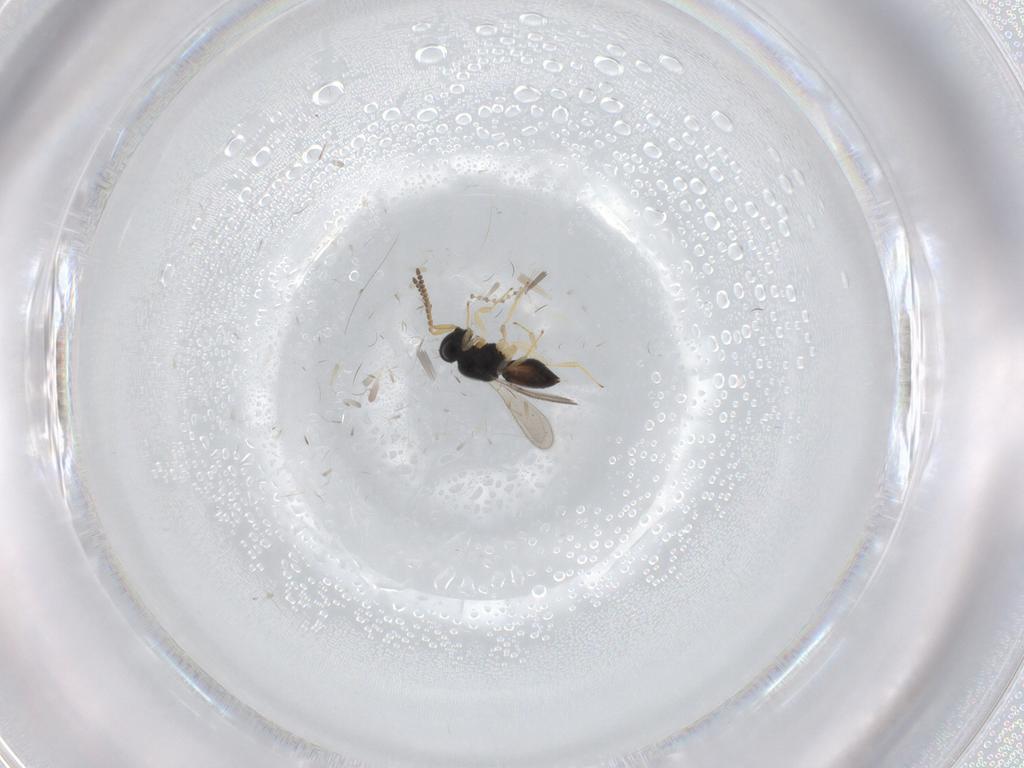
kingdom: Animalia
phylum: Arthropoda
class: Insecta
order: Hymenoptera
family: Scelionidae
